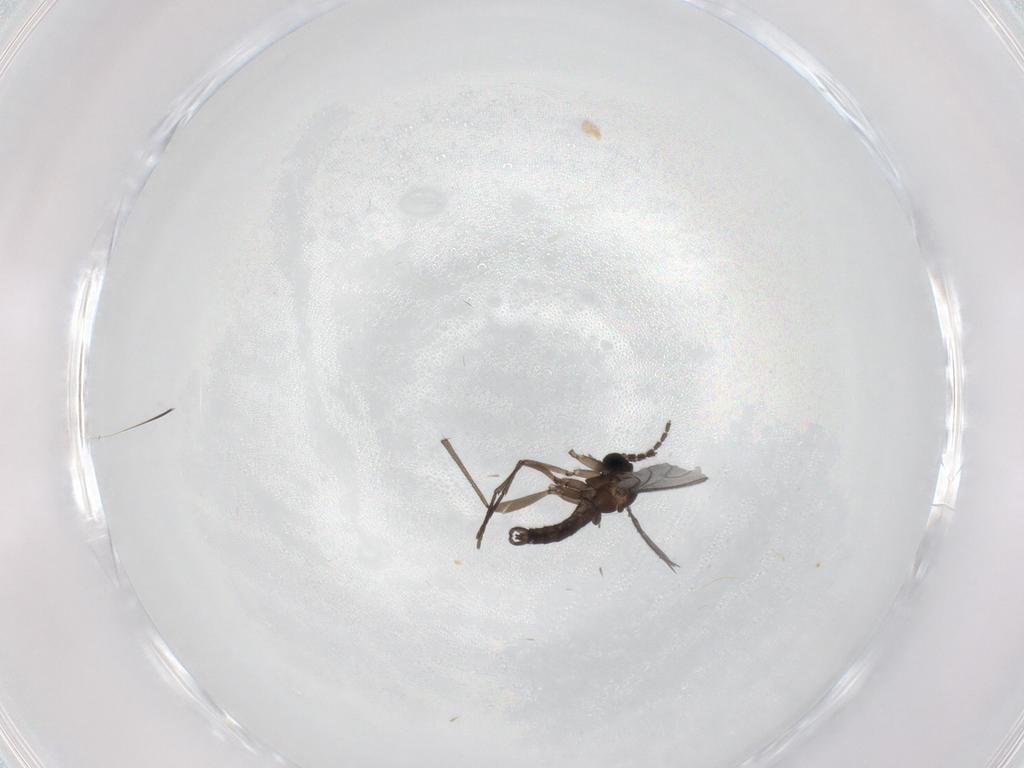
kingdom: Animalia
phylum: Arthropoda
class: Insecta
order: Diptera
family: Sciaridae
